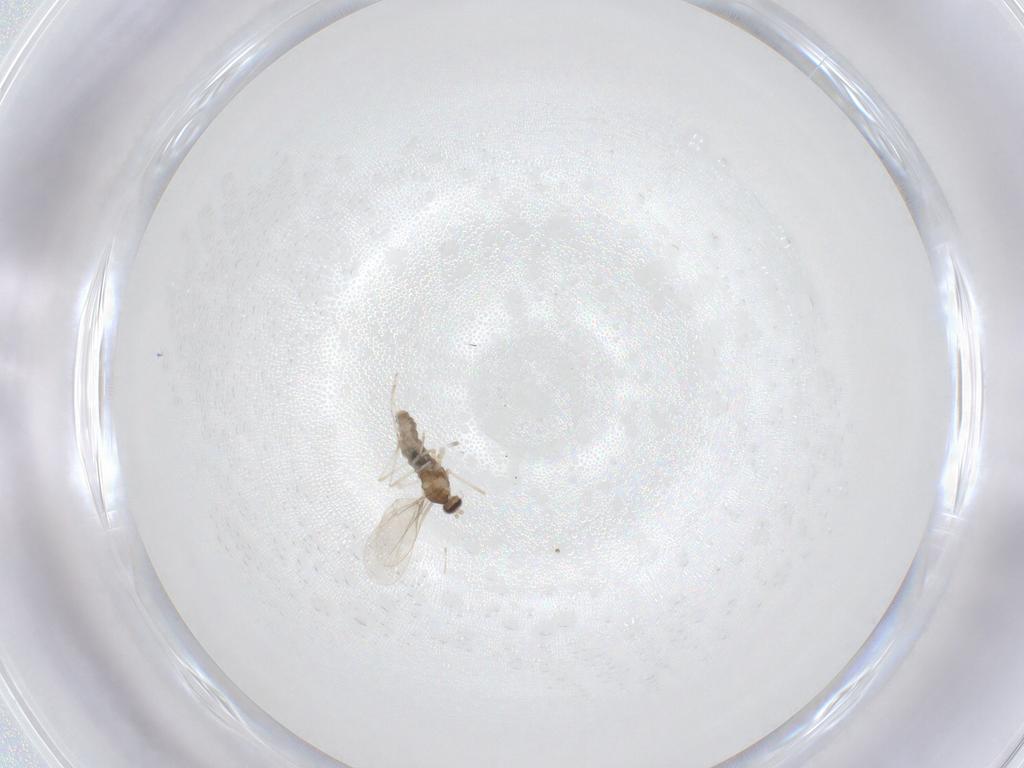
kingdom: Animalia
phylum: Arthropoda
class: Insecta
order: Diptera
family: Cecidomyiidae
